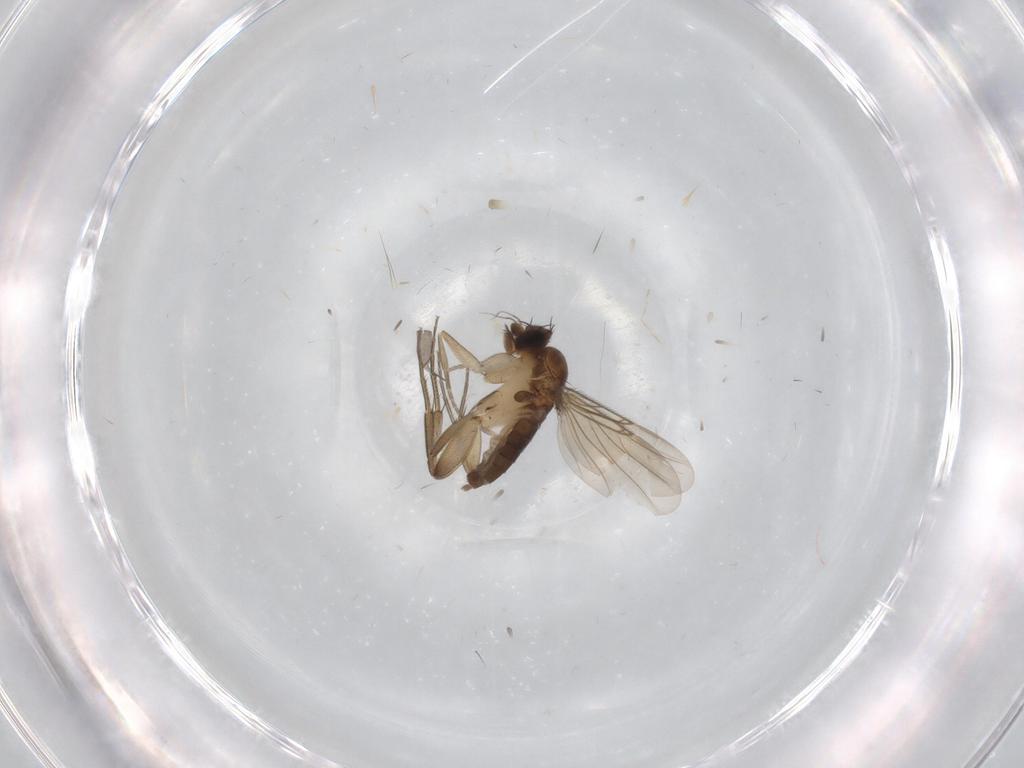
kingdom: Animalia
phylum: Arthropoda
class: Insecta
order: Diptera
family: Phoridae
